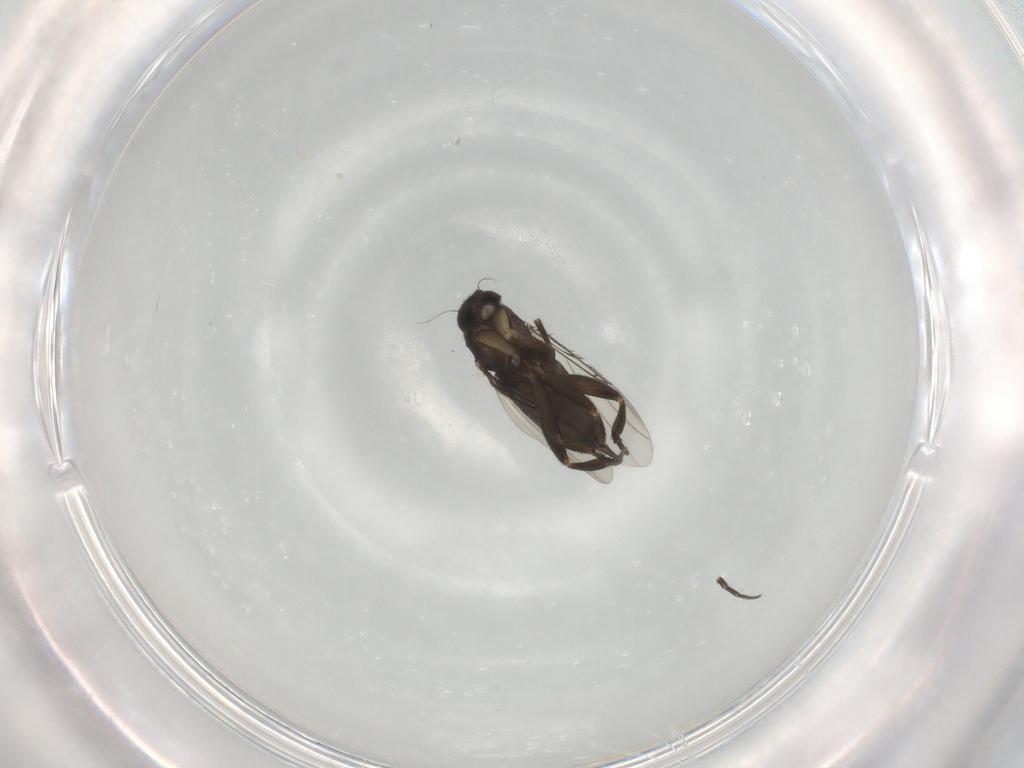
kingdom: Animalia
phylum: Arthropoda
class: Insecta
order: Diptera
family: Phoridae
